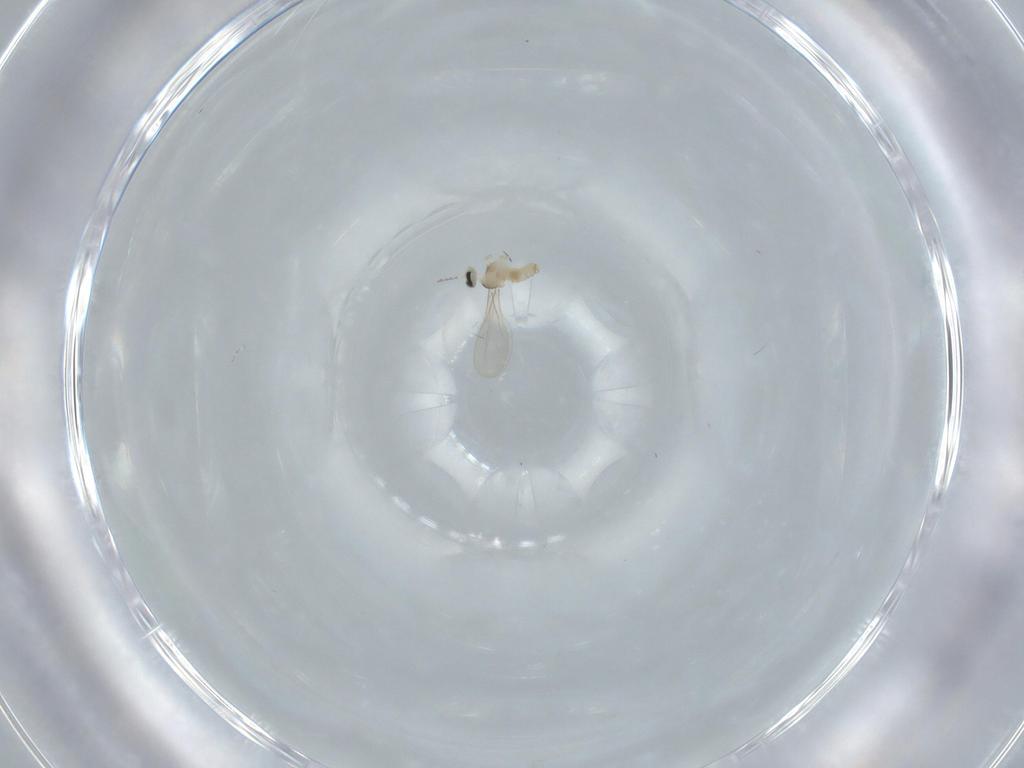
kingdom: Animalia
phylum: Arthropoda
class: Insecta
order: Diptera
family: Cecidomyiidae
